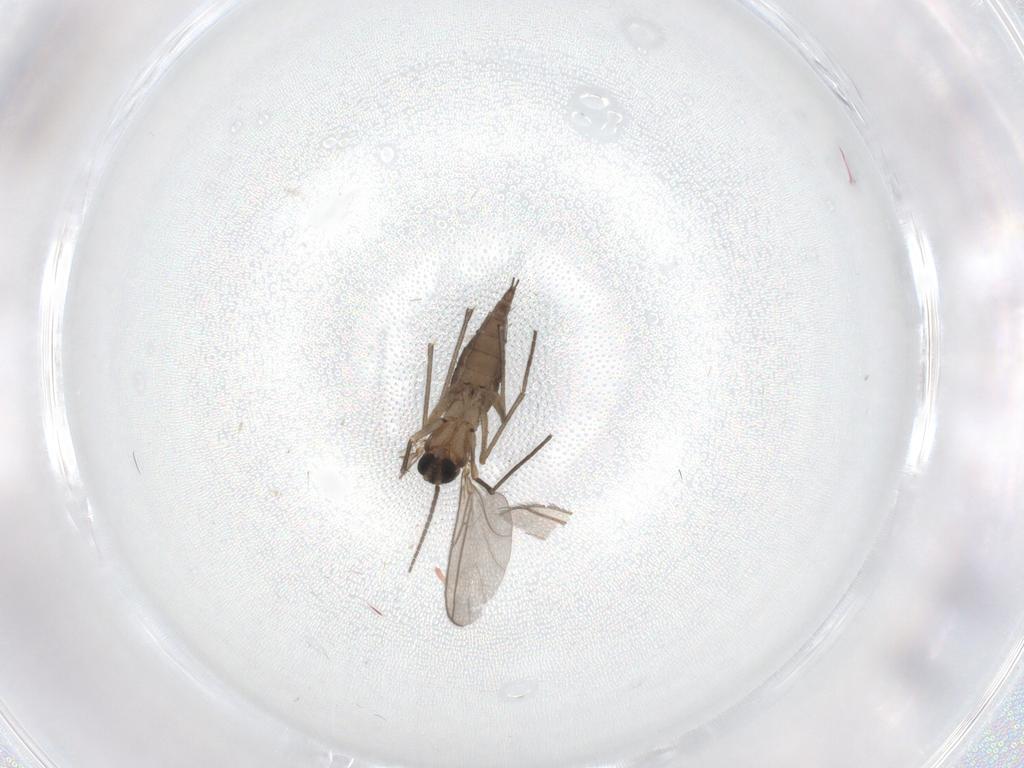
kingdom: Animalia
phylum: Arthropoda
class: Insecta
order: Diptera
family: Sciaridae
